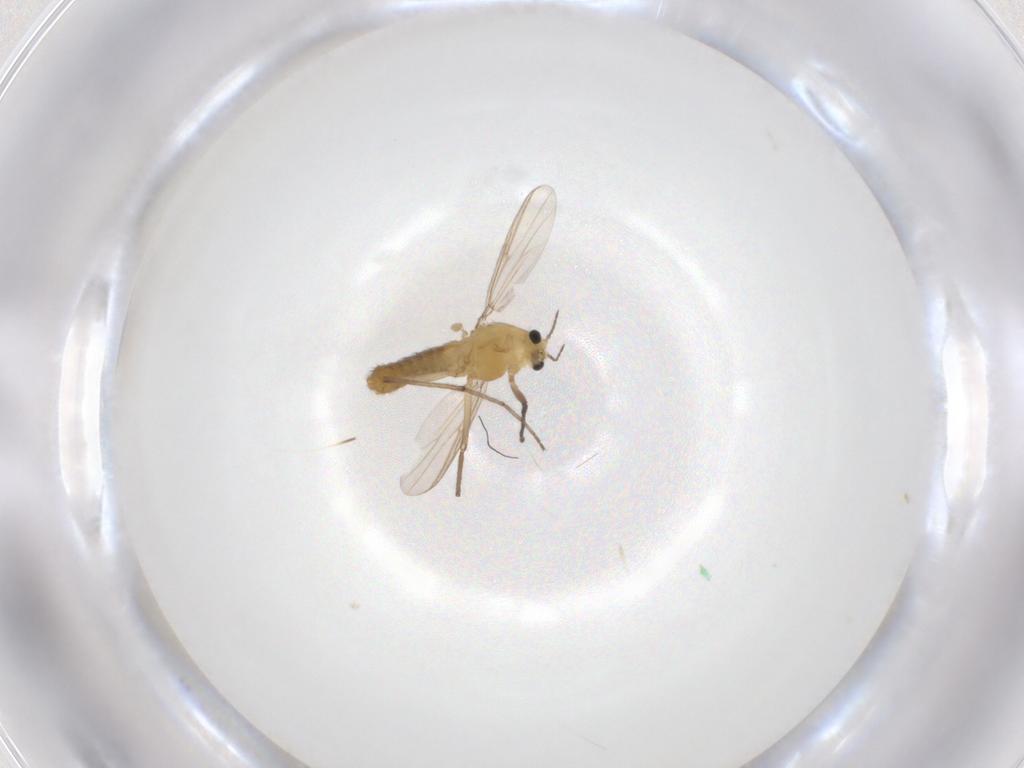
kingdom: Animalia
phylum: Arthropoda
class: Insecta
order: Diptera
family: Chironomidae
